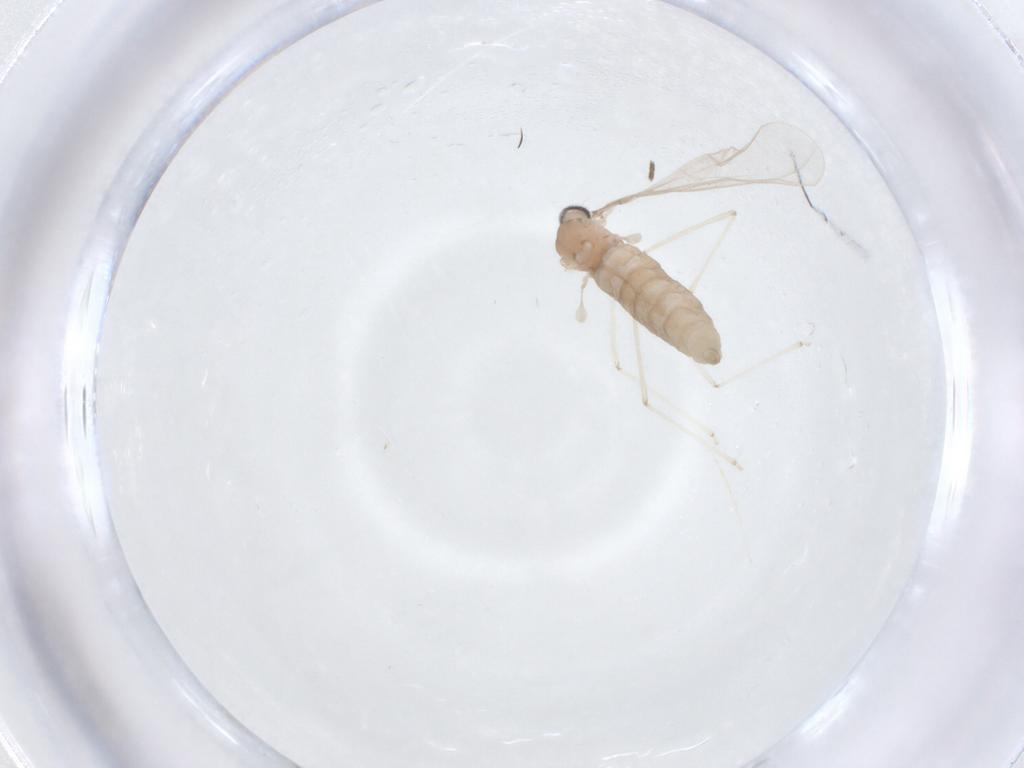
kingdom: Animalia
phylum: Arthropoda
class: Insecta
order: Diptera
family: Cecidomyiidae
